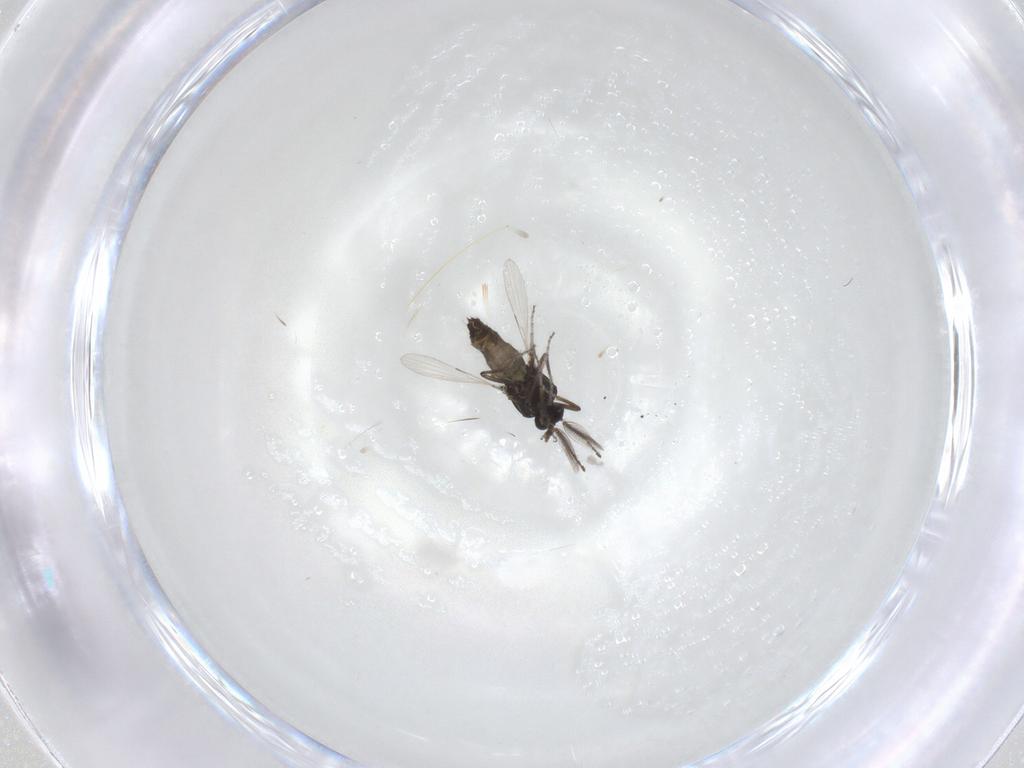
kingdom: Animalia
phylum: Arthropoda
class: Insecta
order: Diptera
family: Ceratopogonidae
